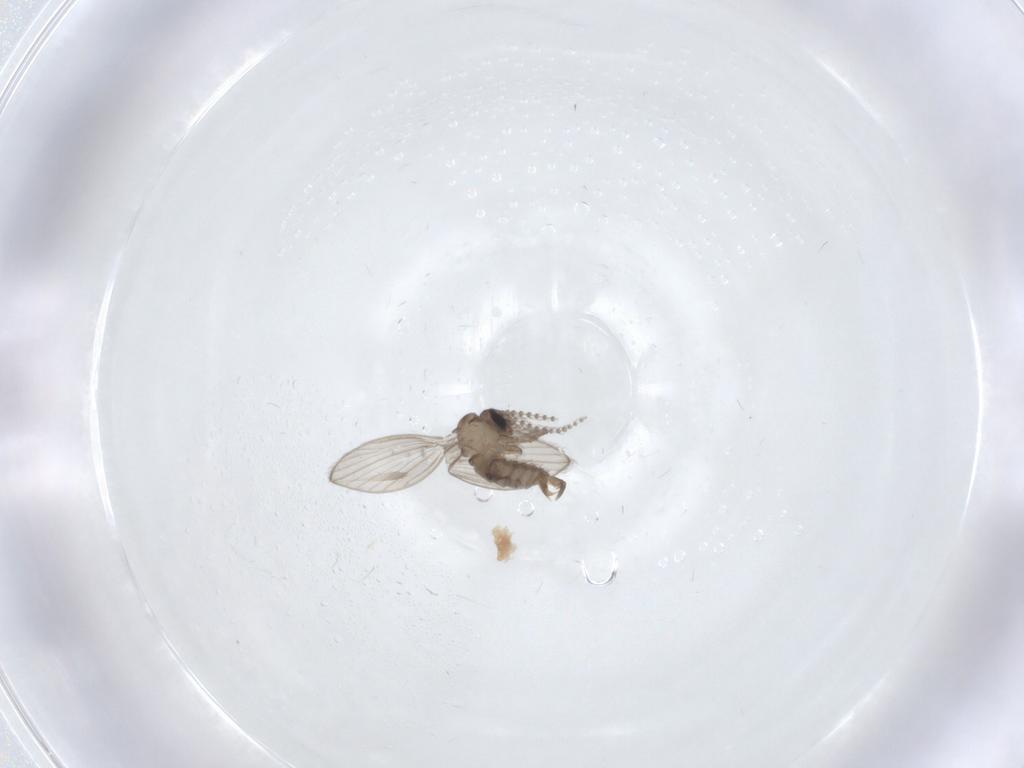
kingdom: Animalia
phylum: Arthropoda
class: Insecta
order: Diptera
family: Psychodidae
